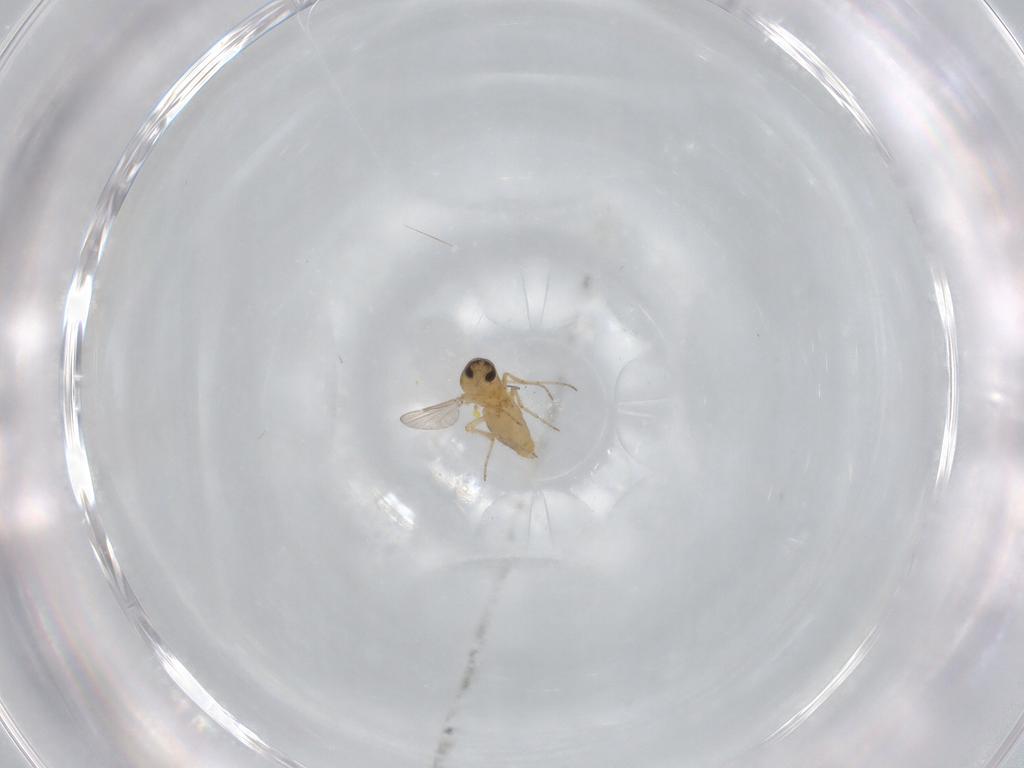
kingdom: Animalia
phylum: Arthropoda
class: Insecta
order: Diptera
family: Ceratopogonidae
